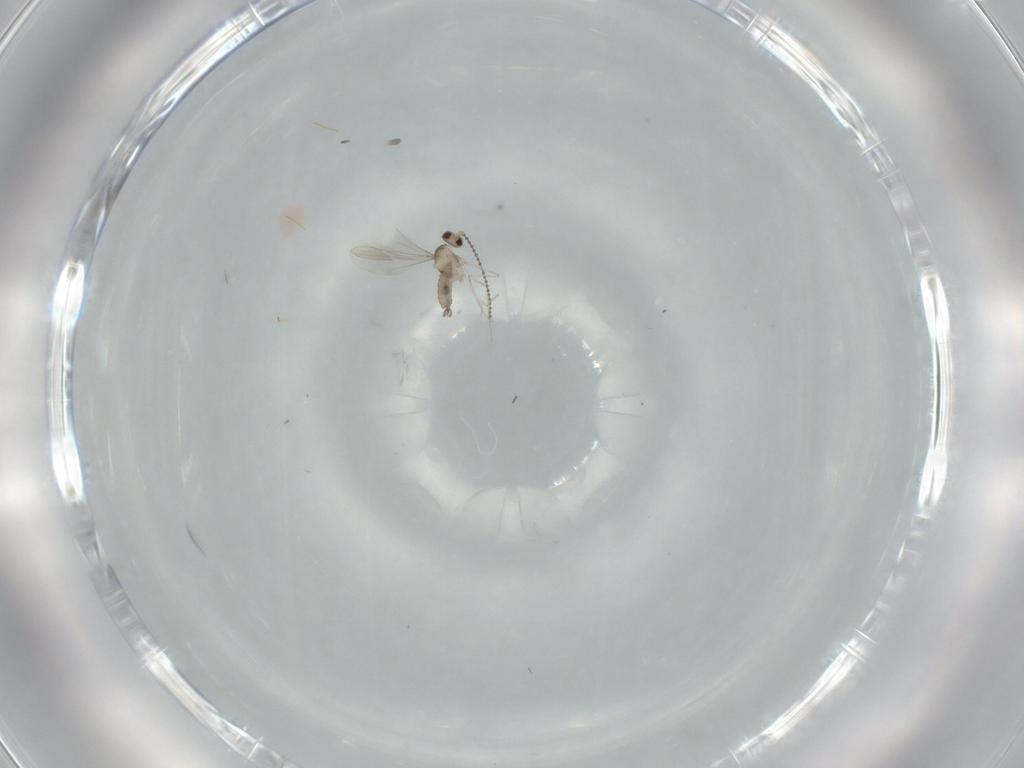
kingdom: Animalia
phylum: Arthropoda
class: Insecta
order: Diptera
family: Cecidomyiidae
